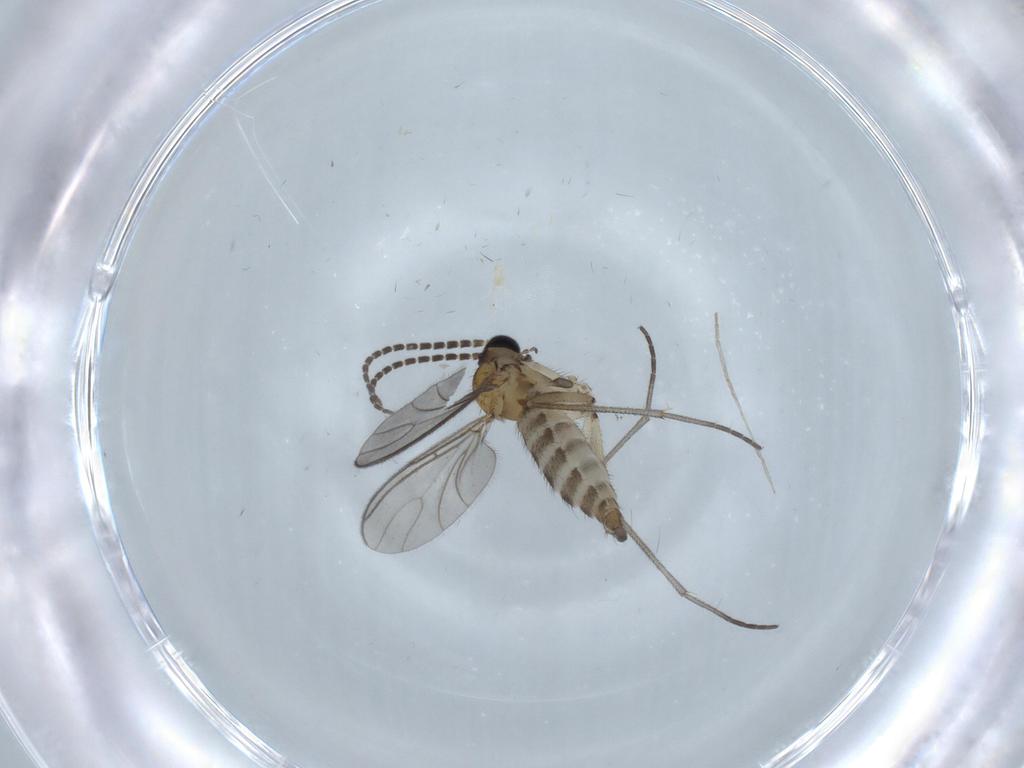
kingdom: Animalia
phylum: Arthropoda
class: Insecta
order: Diptera
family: Sciaridae
